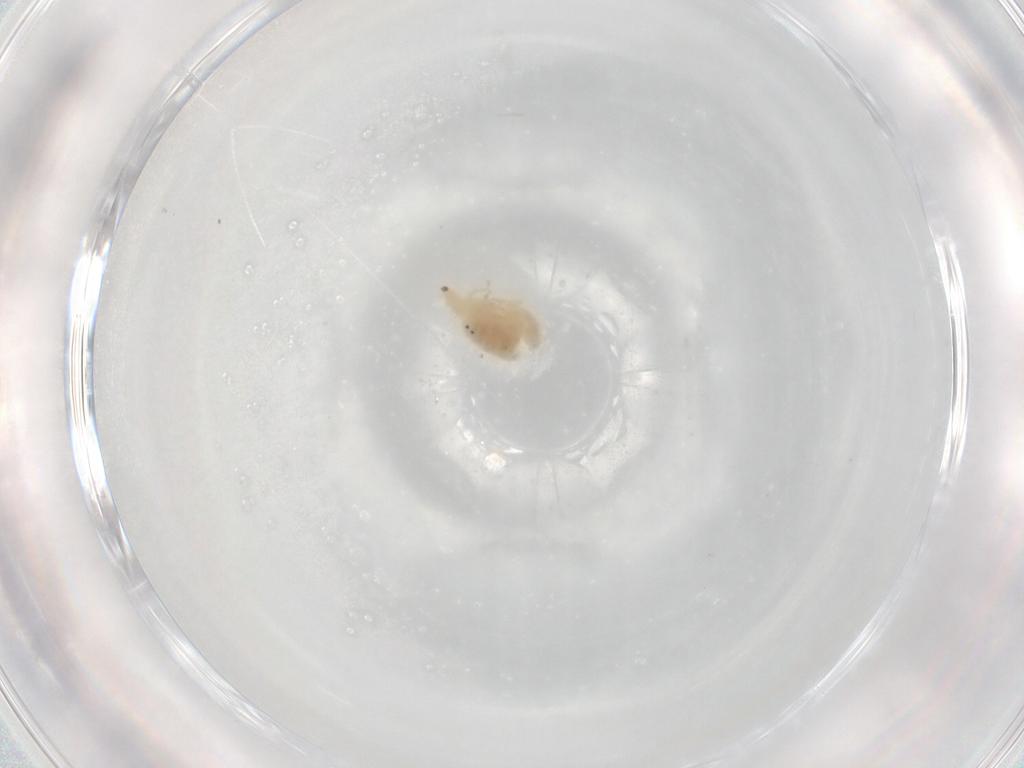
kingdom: Animalia
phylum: Arthropoda
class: Arachnida
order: Trombidiformes
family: Bdellidae
